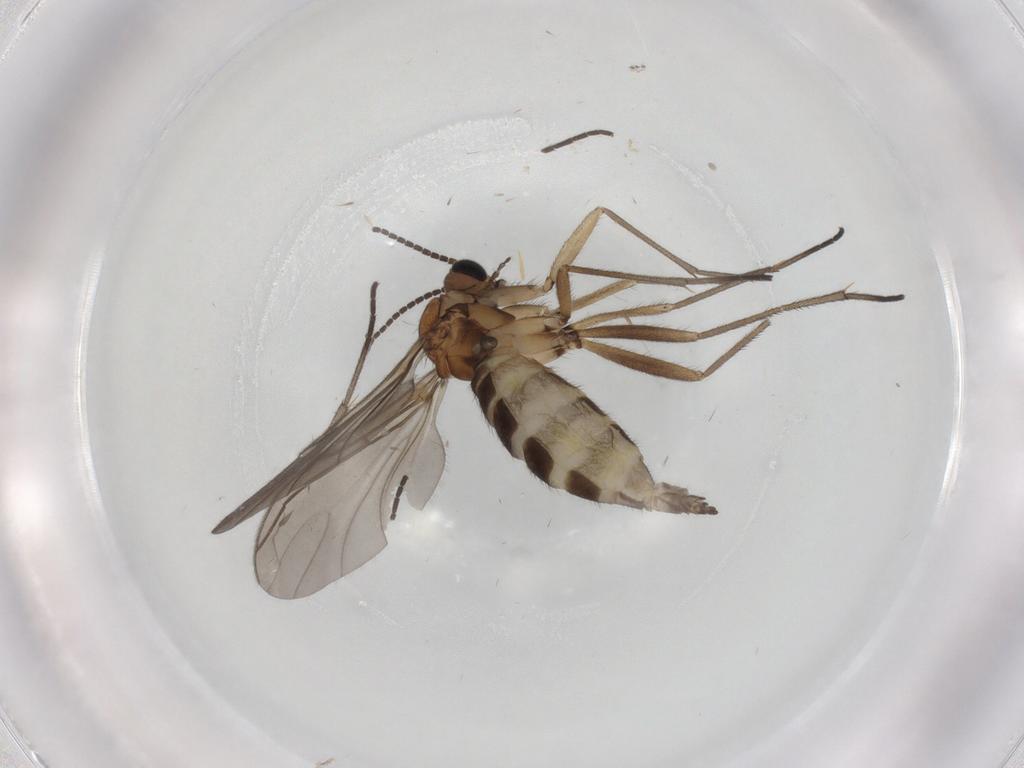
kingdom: Animalia
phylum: Arthropoda
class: Insecta
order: Diptera
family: Sciaridae
